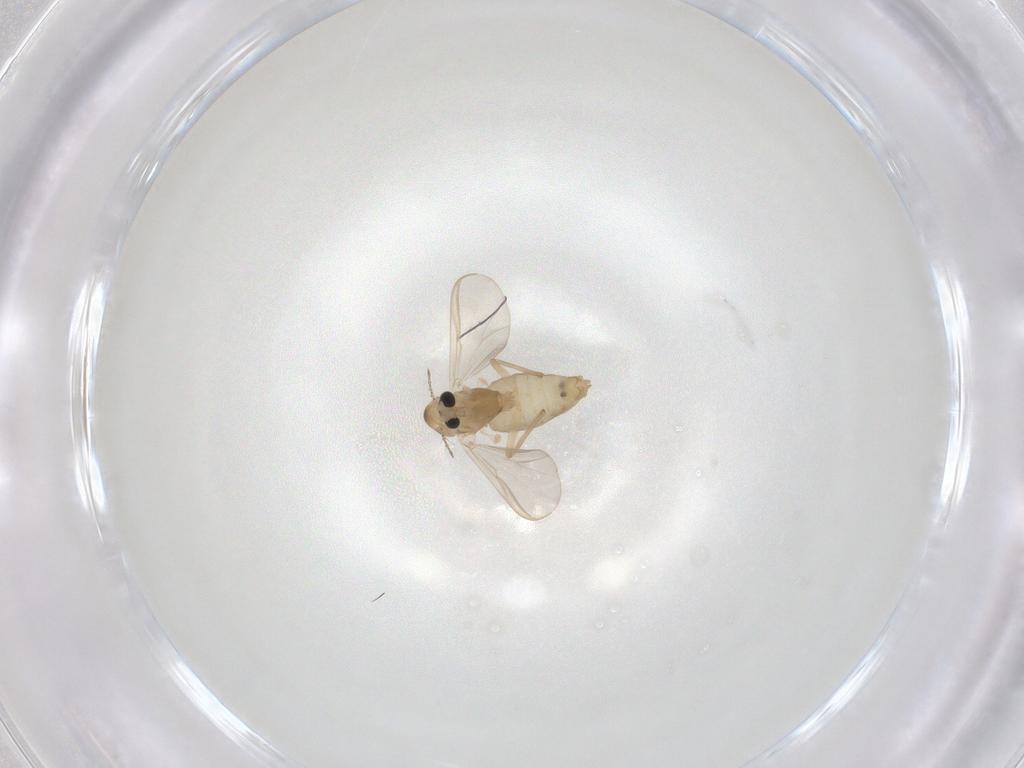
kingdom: Animalia
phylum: Arthropoda
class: Insecta
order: Diptera
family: Chironomidae
